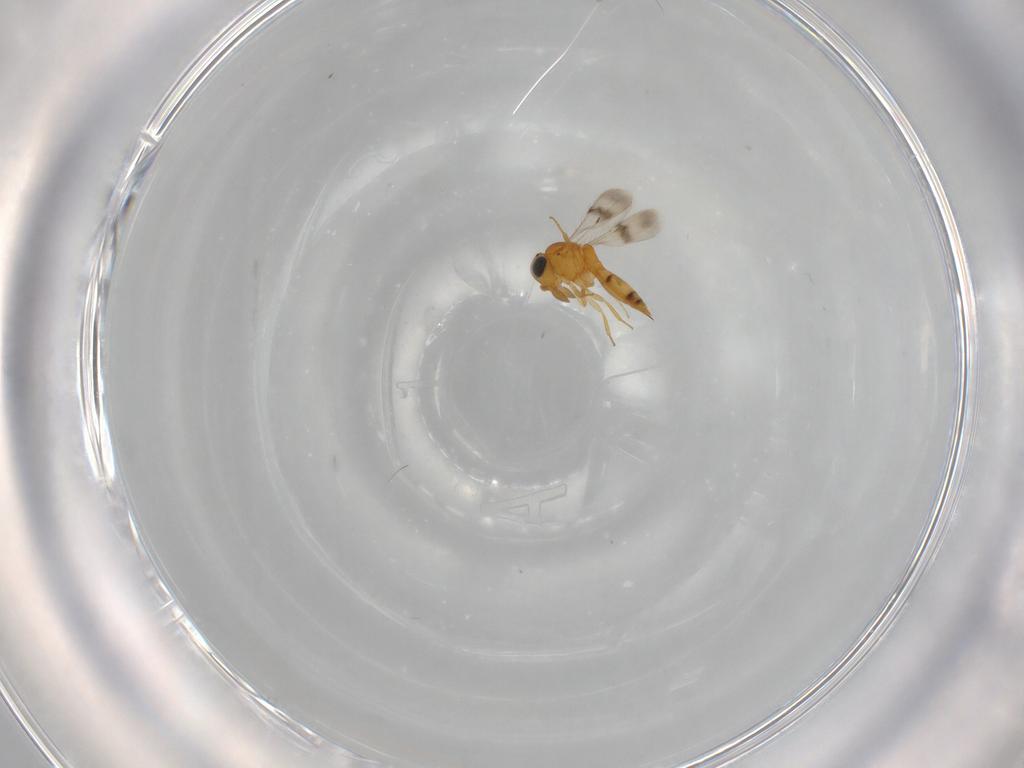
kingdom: Animalia
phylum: Arthropoda
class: Insecta
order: Hymenoptera
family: Scelionidae
